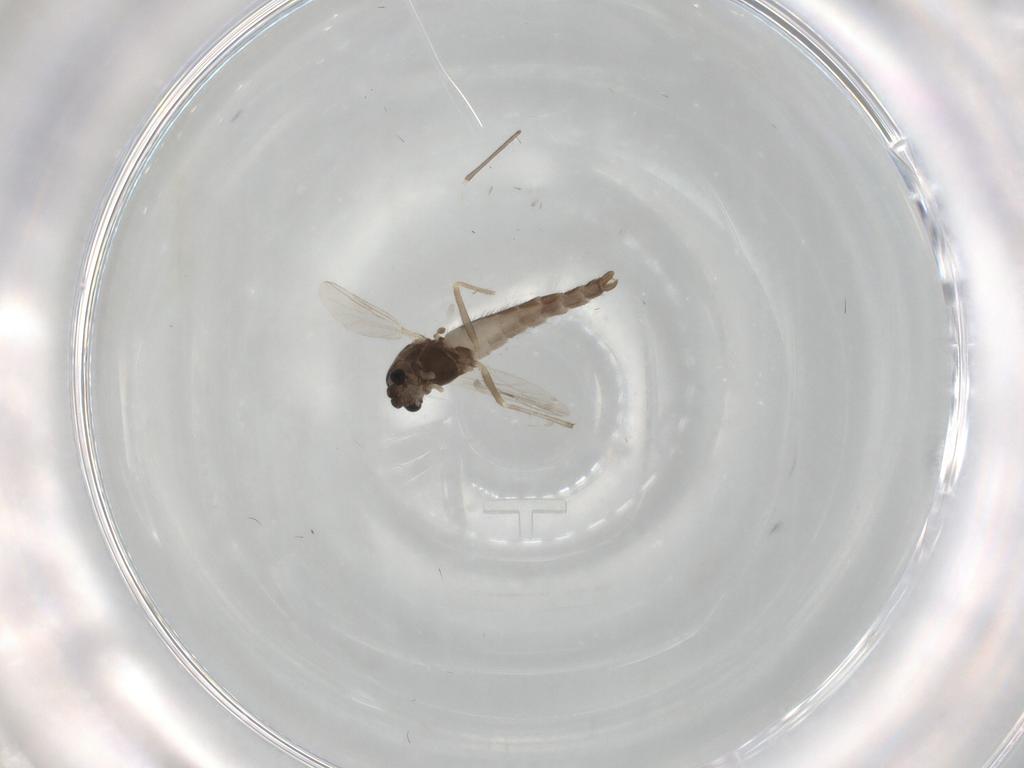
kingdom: Animalia
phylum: Arthropoda
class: Insecta
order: Diptera
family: Chironomidae
